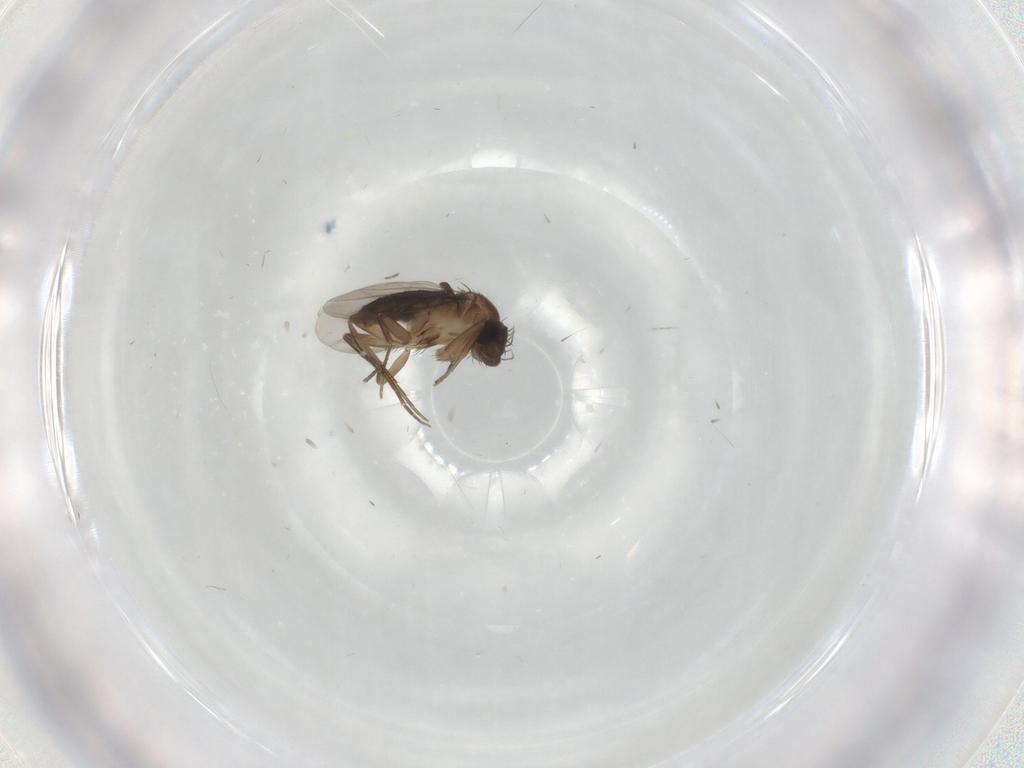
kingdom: Animalia
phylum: Arthropoda
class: Insecta
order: Diptera
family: Phoridae
